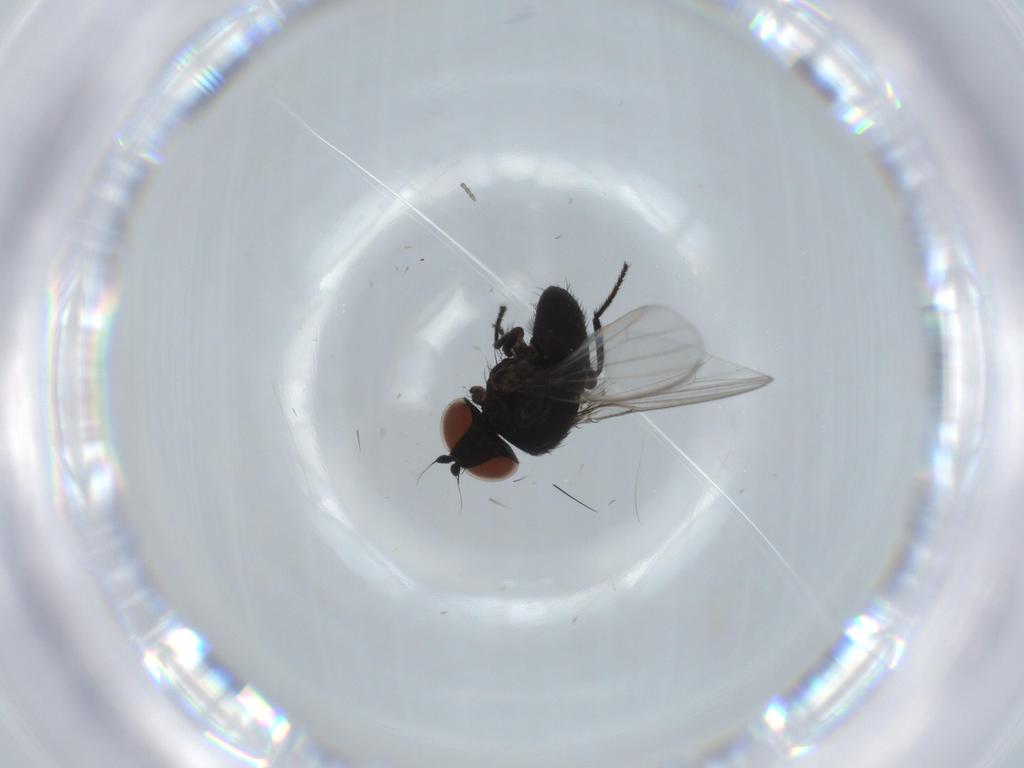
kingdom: Animalia
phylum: Arthropoda
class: Insecta
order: Diptera
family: Milichiidae
